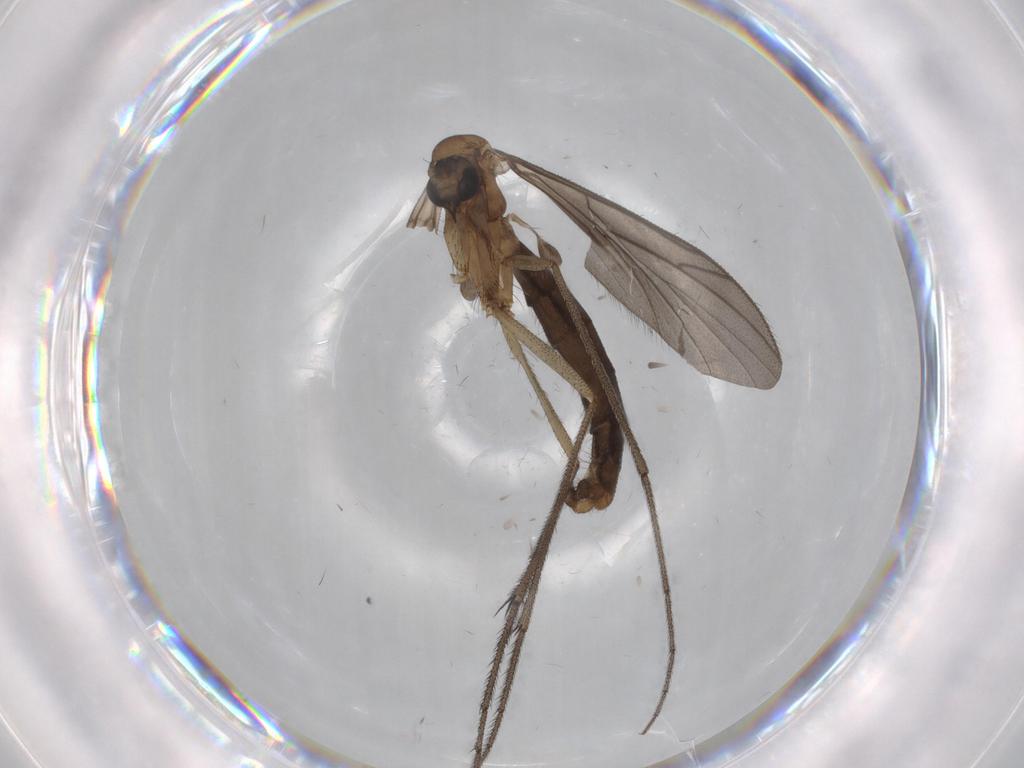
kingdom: Animalia
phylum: Arthropoda
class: Insecta
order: Diptera
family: Ditomyiidae
